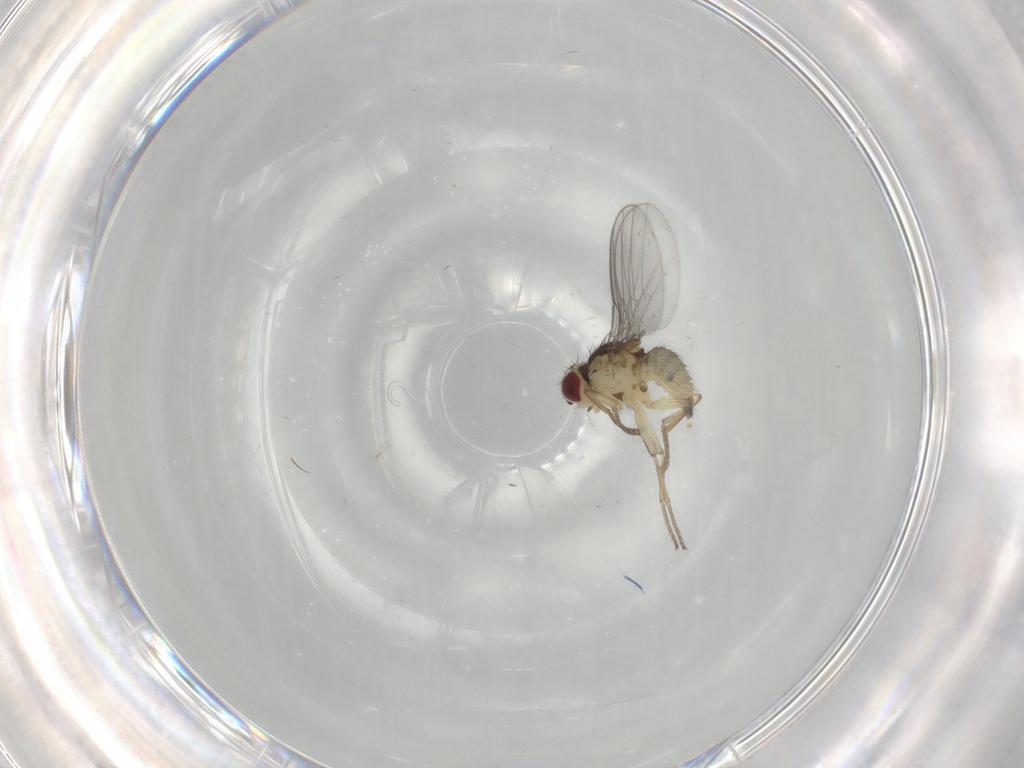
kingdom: Animalia
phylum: Arthropoda
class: Insecta
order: Diptera
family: Agromyzidae
